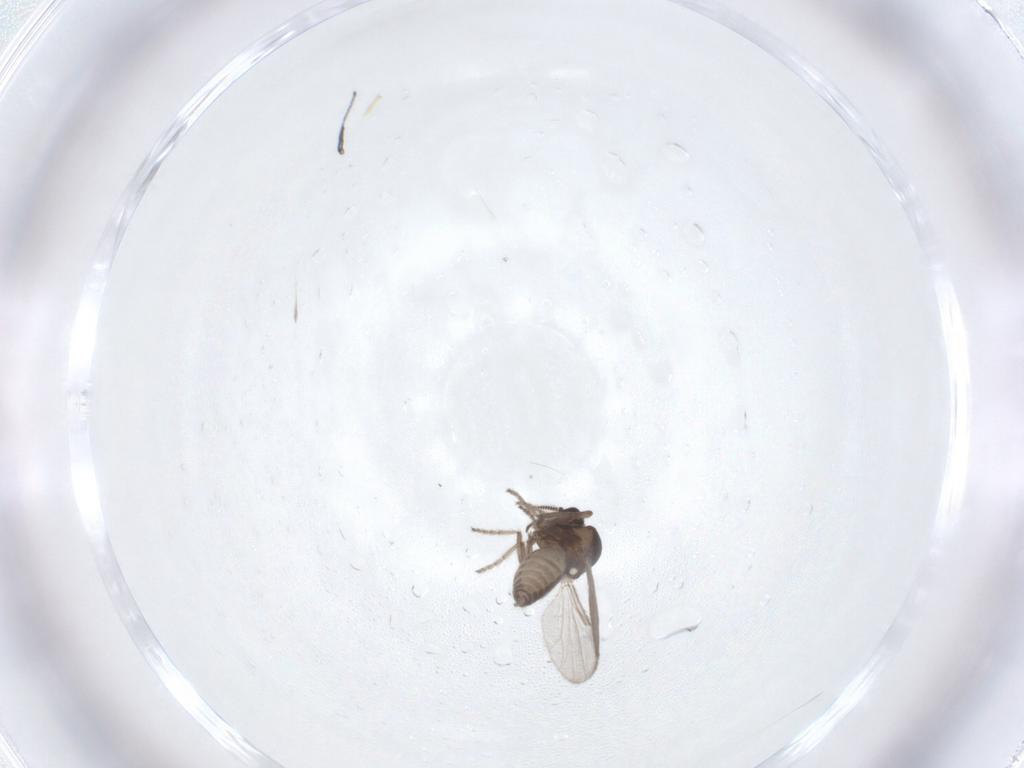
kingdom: Animalia
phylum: Arthropoda
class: Insecta
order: Diptera
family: Ceratopogonidae
